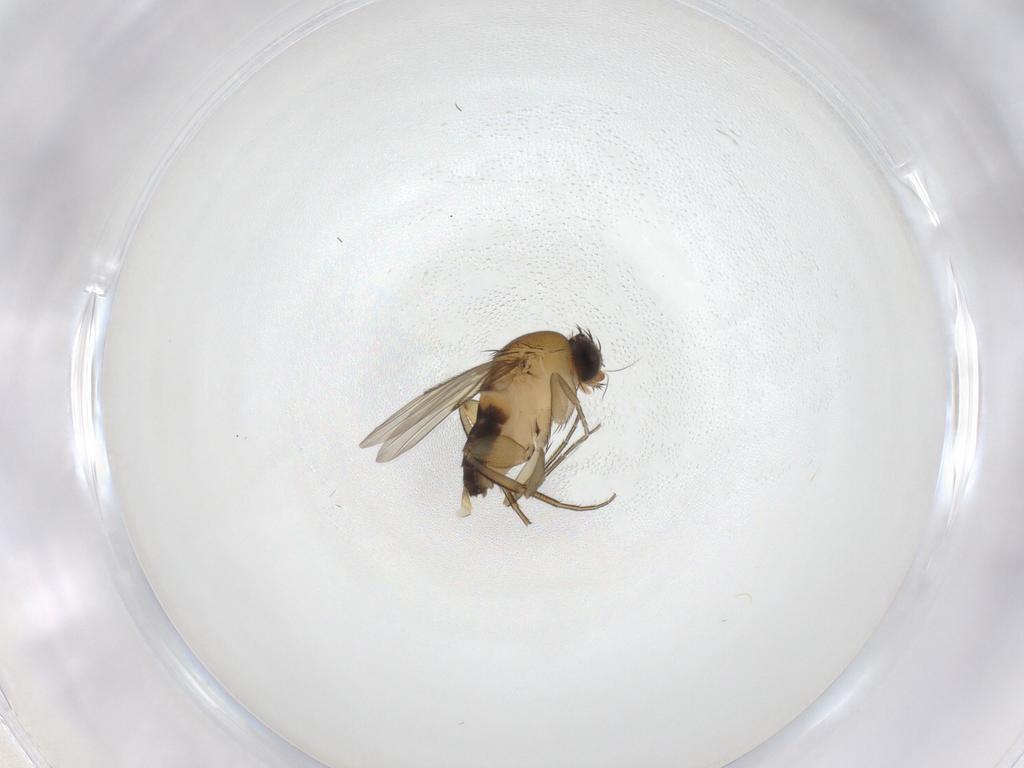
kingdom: Animalia
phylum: Arthropoda
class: Insecta
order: Diptera
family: Phoridae
